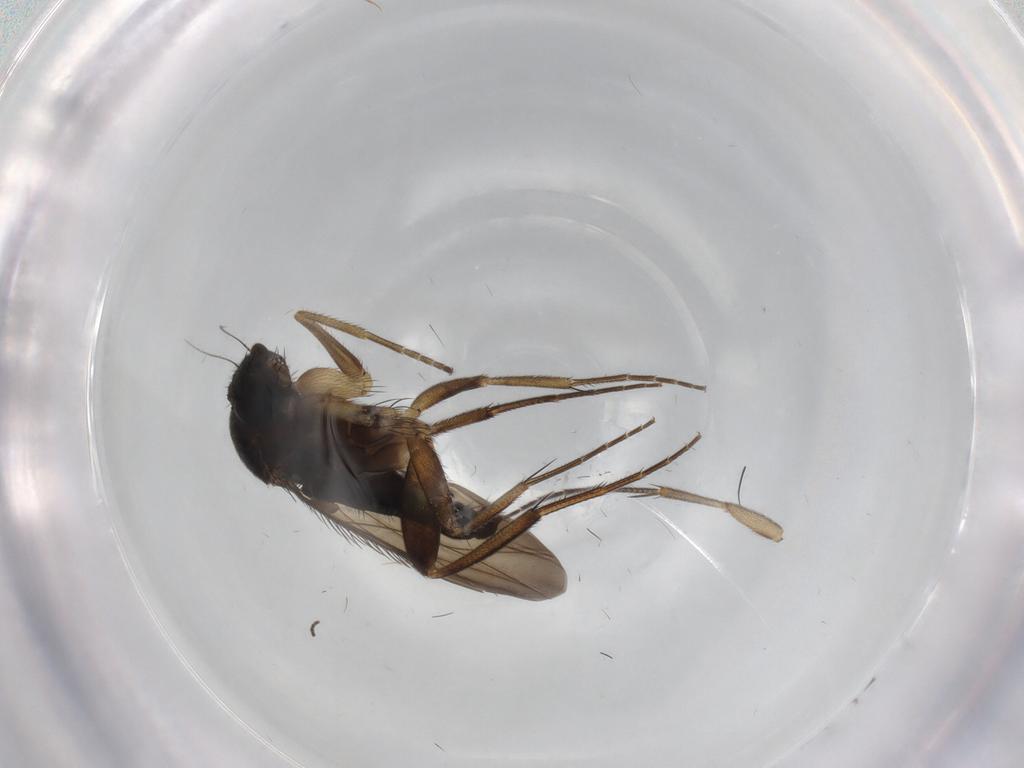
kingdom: Animalia
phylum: Arthropoda
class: Insecta
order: Diptera
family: Phoridae
